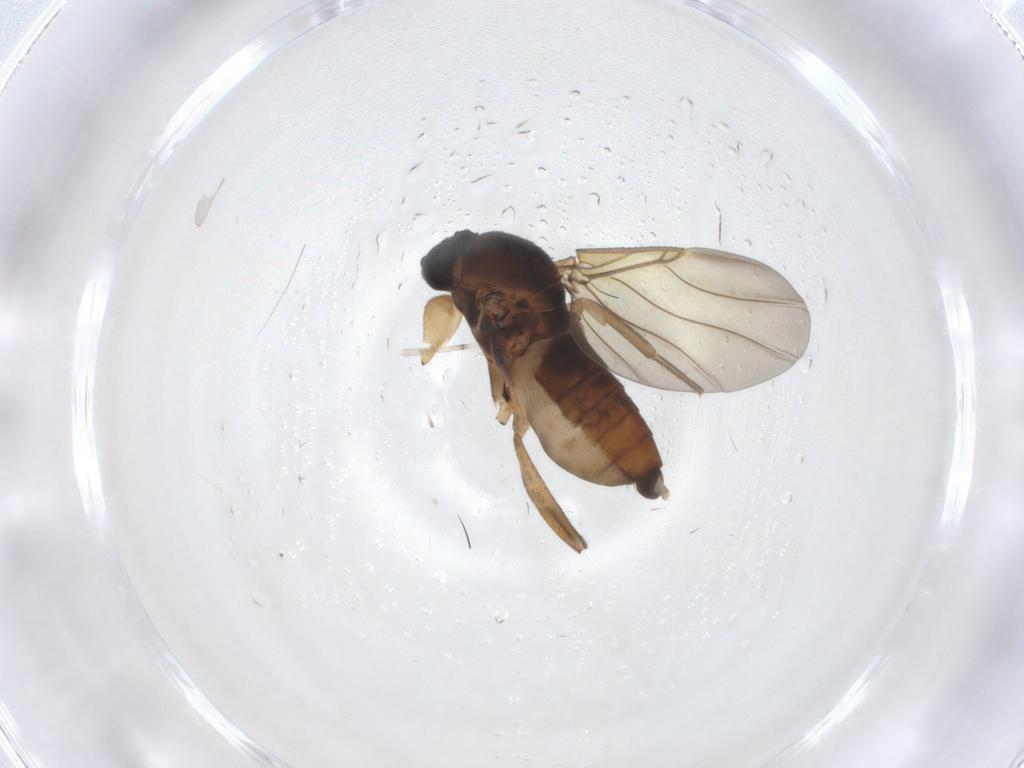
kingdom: Animalia
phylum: Arthropoda
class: Insecta
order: Diptera
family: Phoridae
